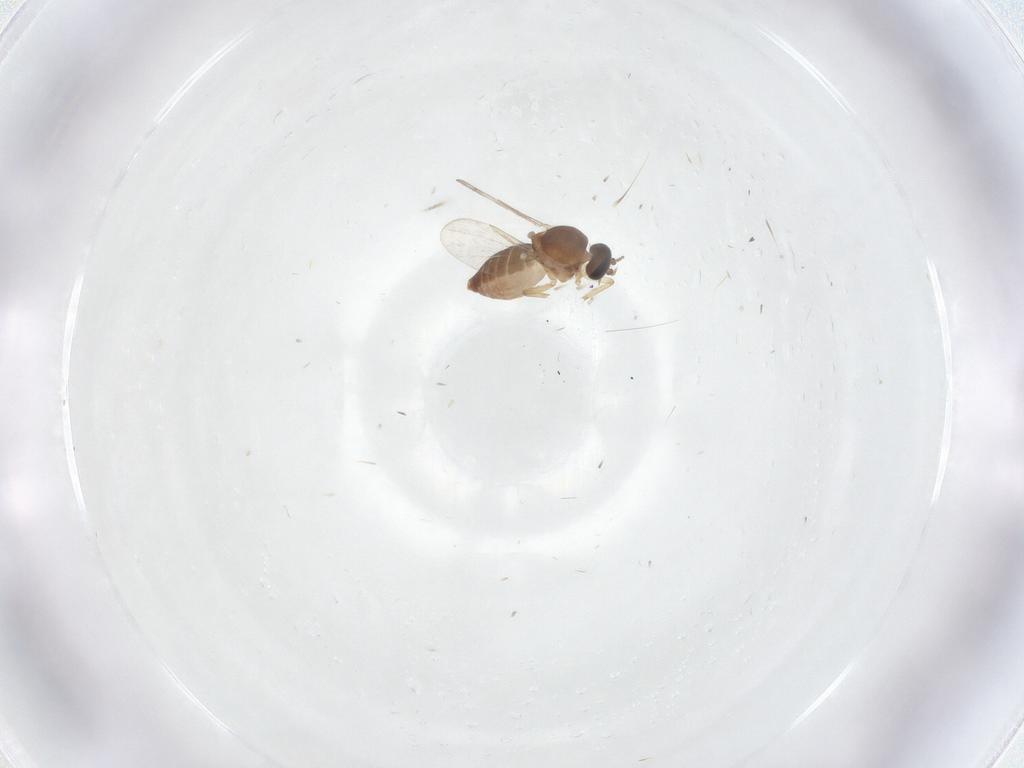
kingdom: Animalia
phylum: Arthropoda
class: Insecta
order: Diptera
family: Ceratopogonidae
